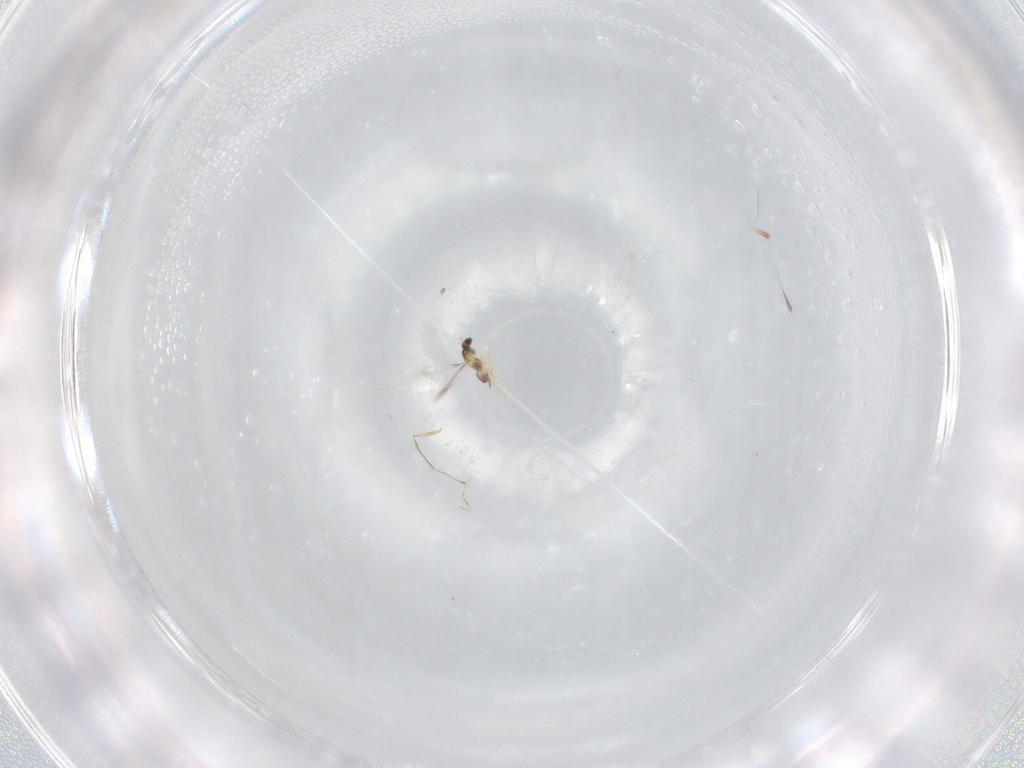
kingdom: Animalia
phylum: Arthropoda
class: Insecta
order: Hymenoptera
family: Mymaridae
